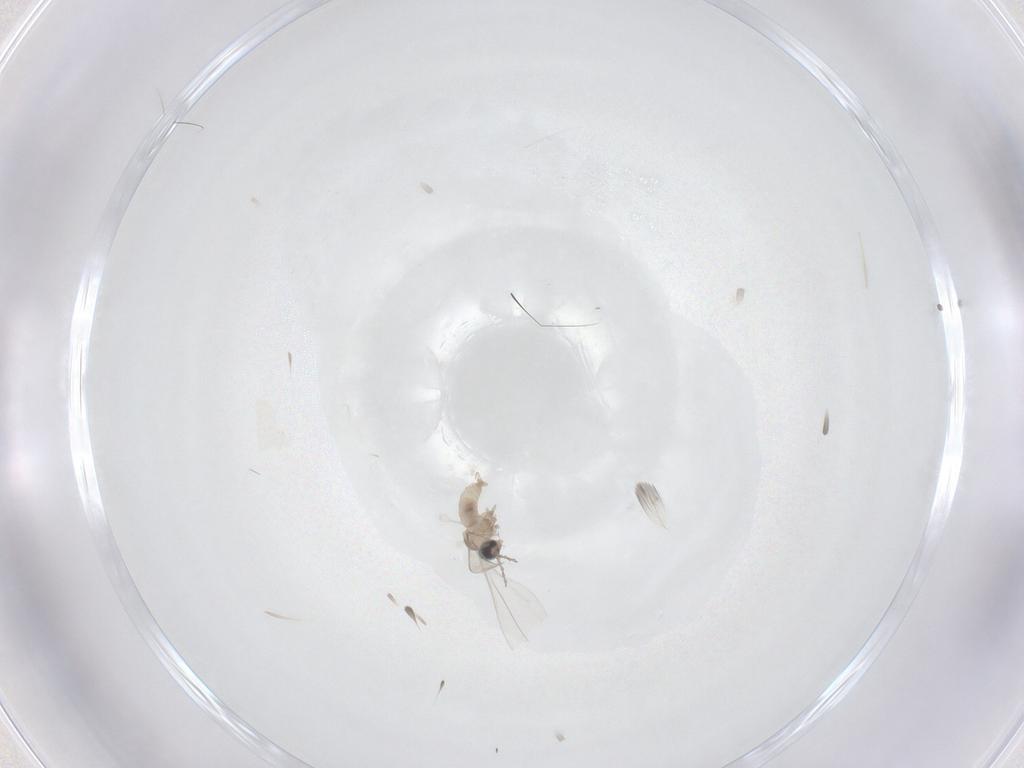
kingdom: Animalia
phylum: Arthropoda
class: Insecta
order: Diptera
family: Cecidomyiidae
